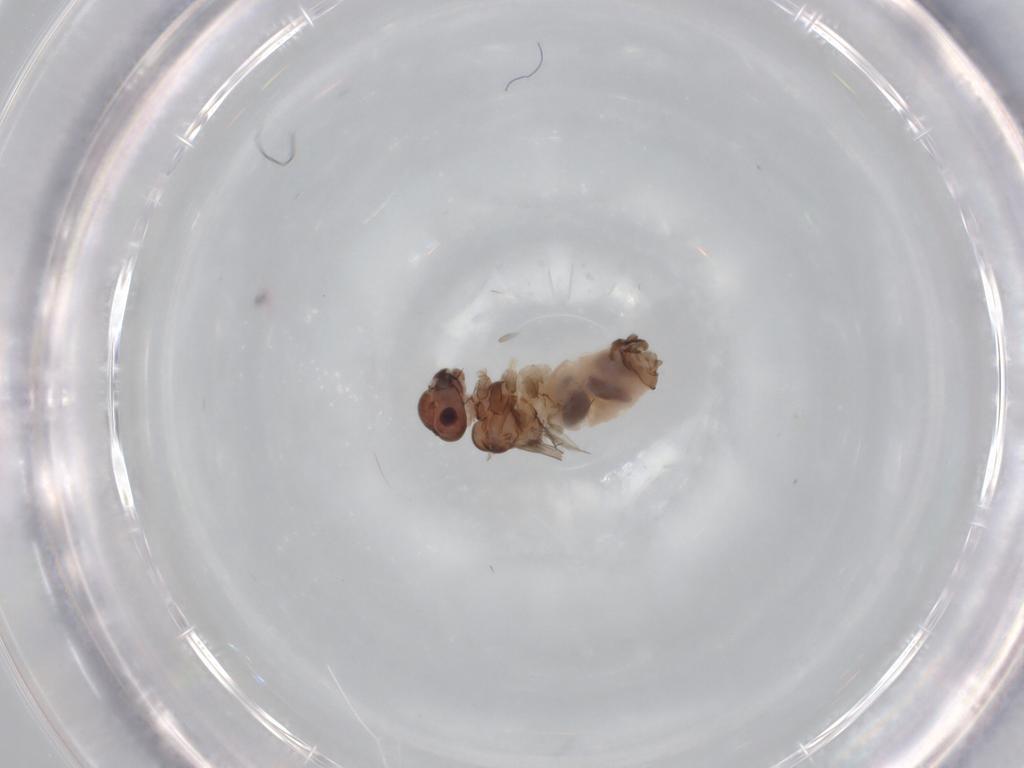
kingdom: Animalia
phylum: Arthropoda
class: Insecta
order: Psocodea
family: Peripsocidae
